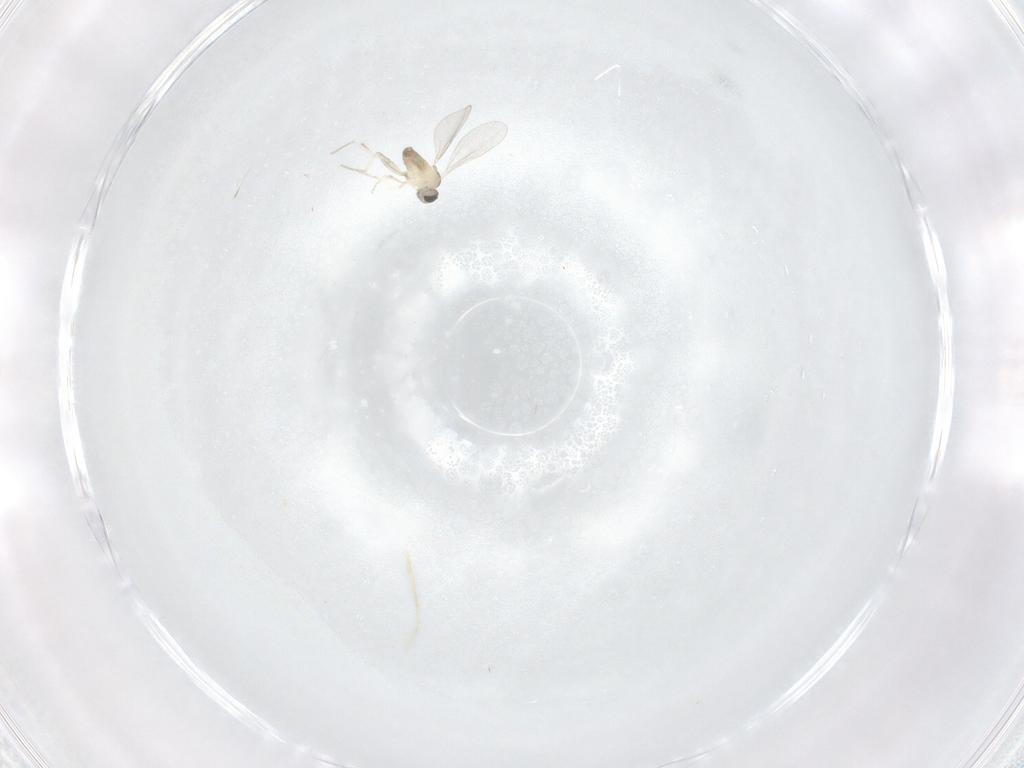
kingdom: Animalia
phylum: Arthropoda
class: Insecta
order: Diptera
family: Cecidomyiidae
